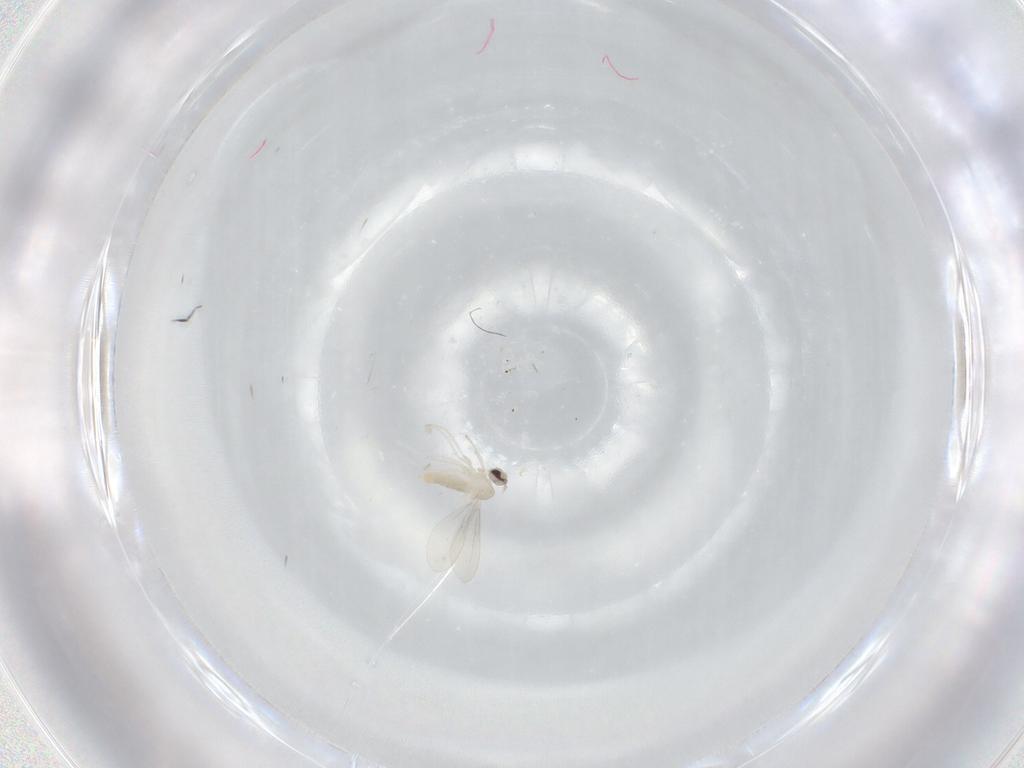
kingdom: Animalia
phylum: Arthropoda
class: Insecta
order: Diptera
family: Cecidomyiidae
